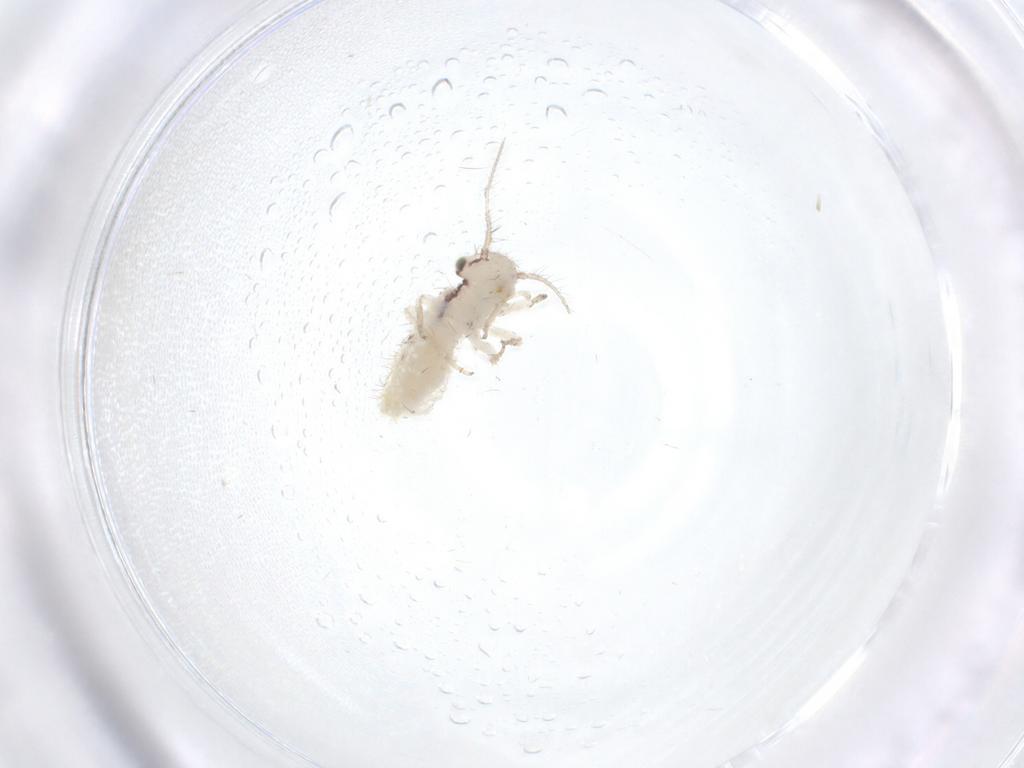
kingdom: Animalia
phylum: Arthropoda
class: Insecta
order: Psocodea
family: Pseudocaeciliidae
